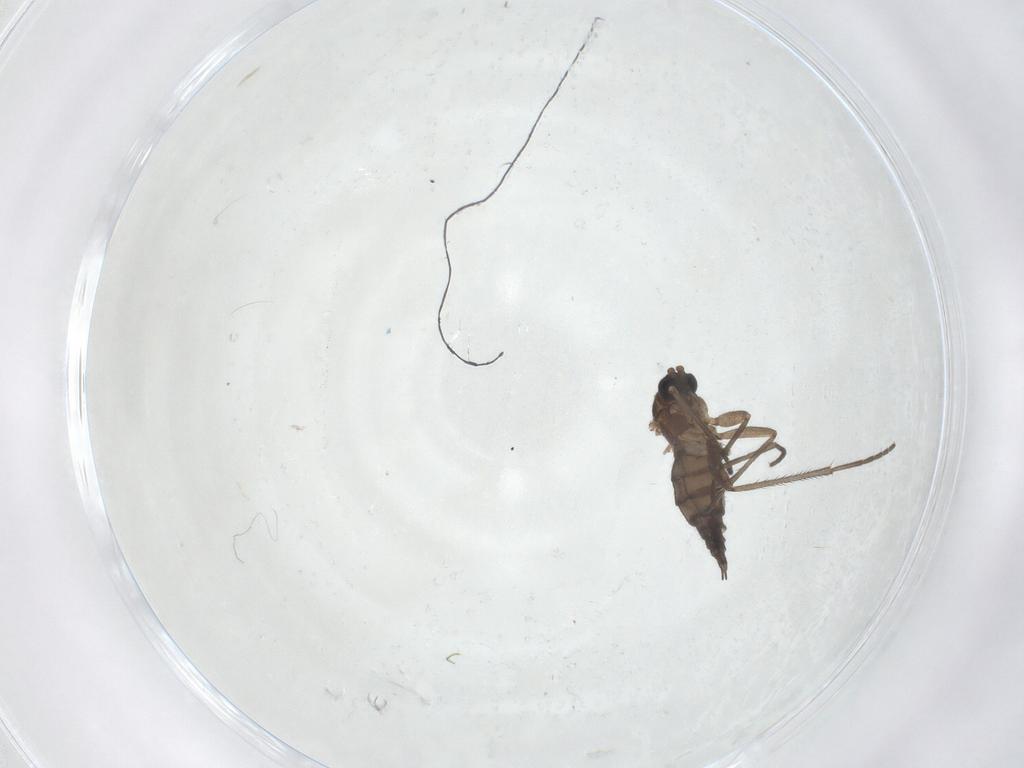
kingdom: Animalia
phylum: Arthropoda
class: Insecta
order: Diptera
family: Sciaridae
